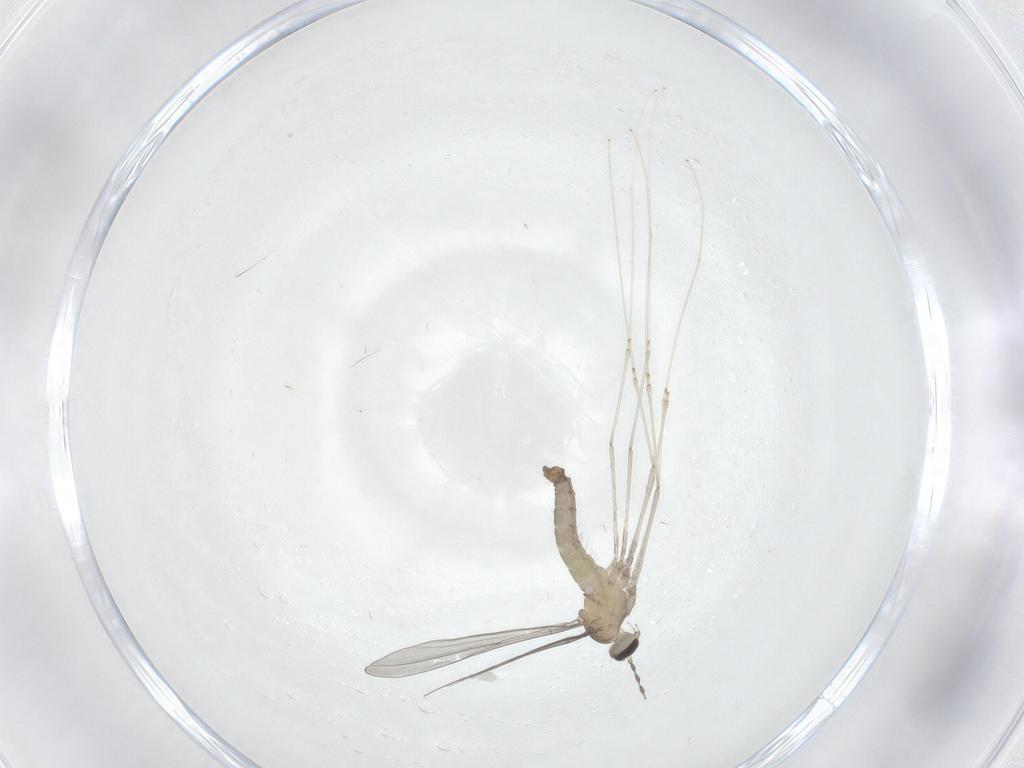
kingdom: Animalia
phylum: Arthropoda
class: Insecta
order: Diptera
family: Cecidomyiidae
